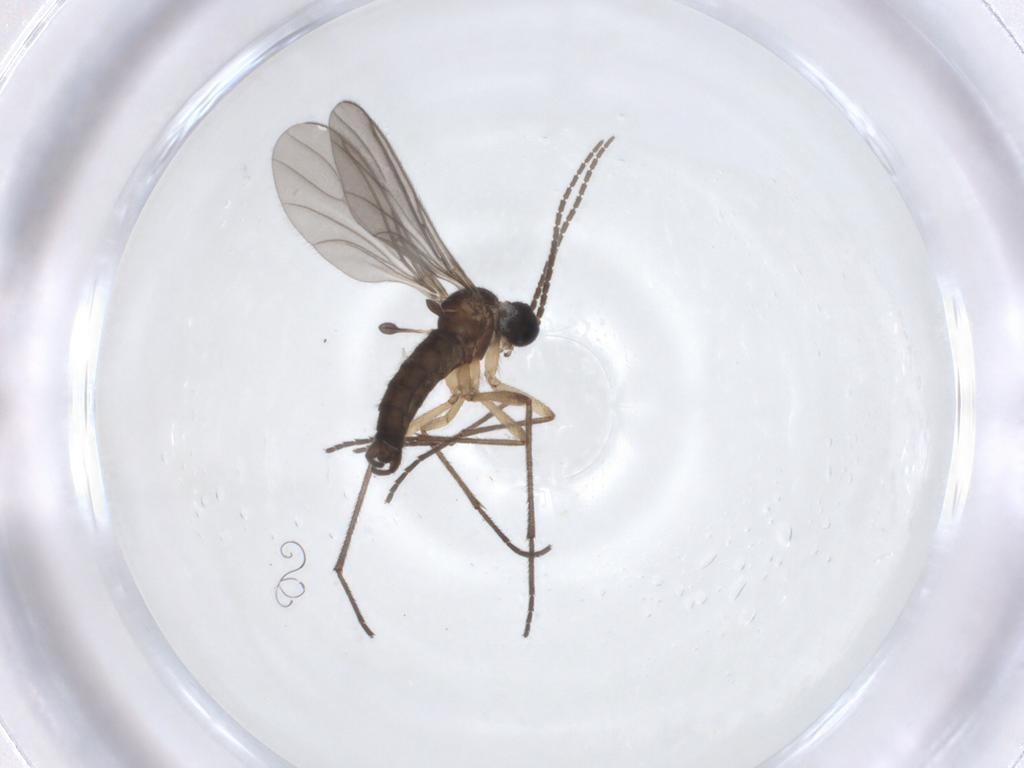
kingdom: Animalia
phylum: Arthropoda
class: Insecta
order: Diptera
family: Sciaridae
